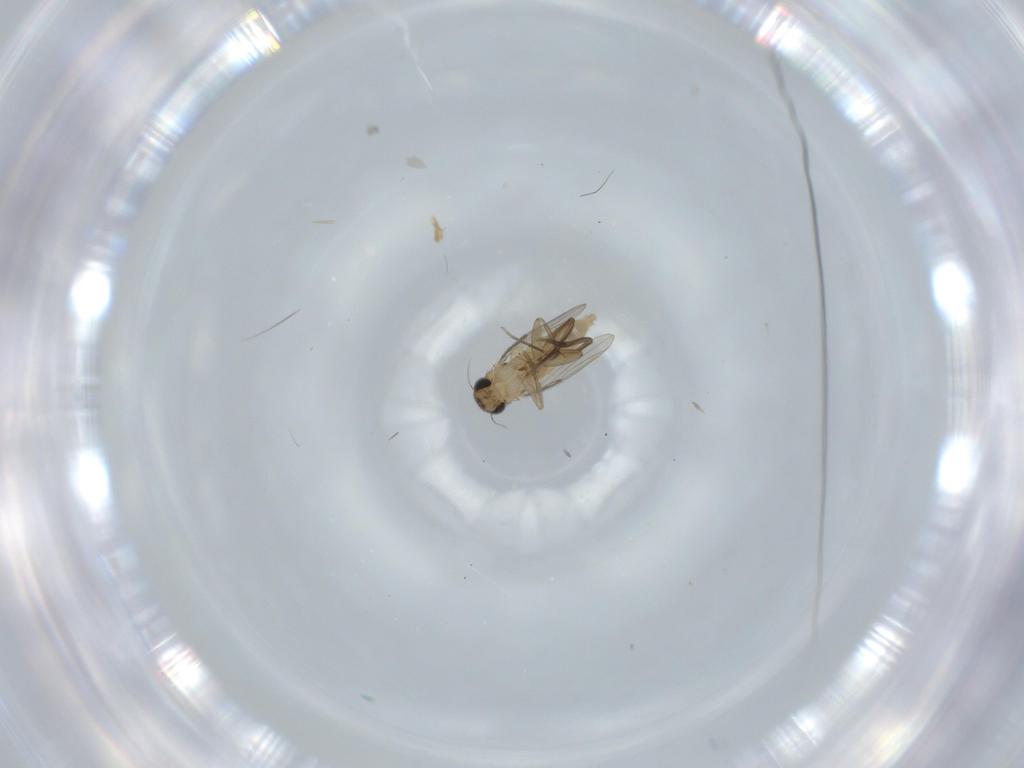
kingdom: Animalia
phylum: Arthropoda
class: Insecta
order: Diptera
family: Phoridae
